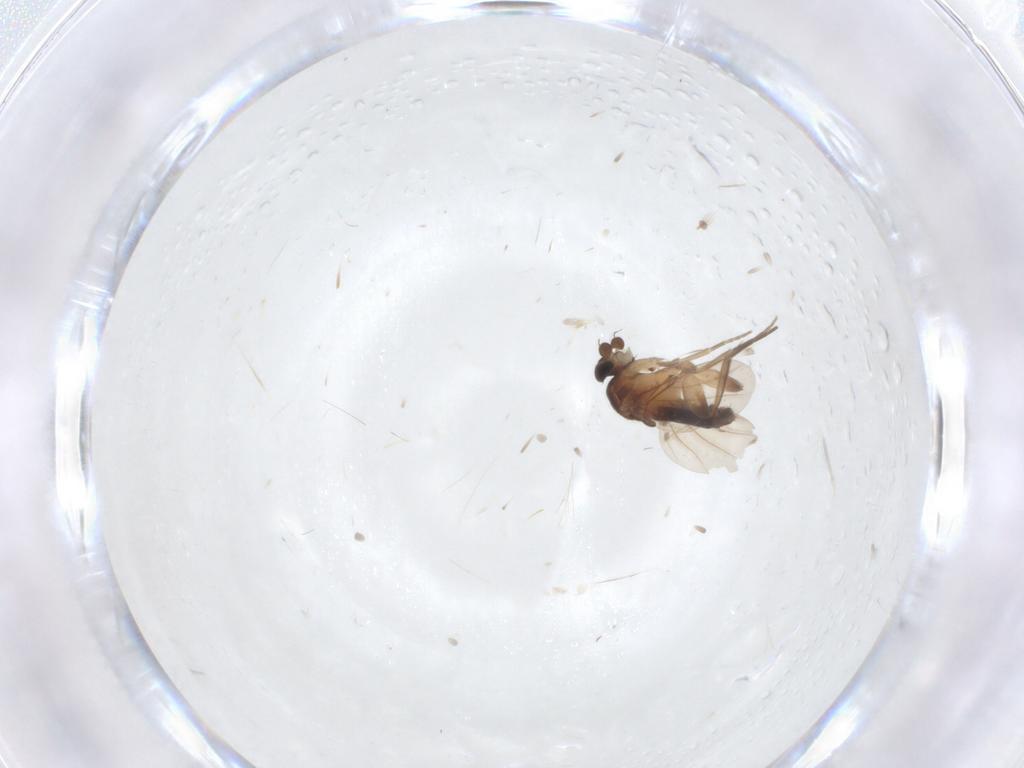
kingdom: Animalia
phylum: Arthropoda
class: Insecta
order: Diptera
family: Phoridae
